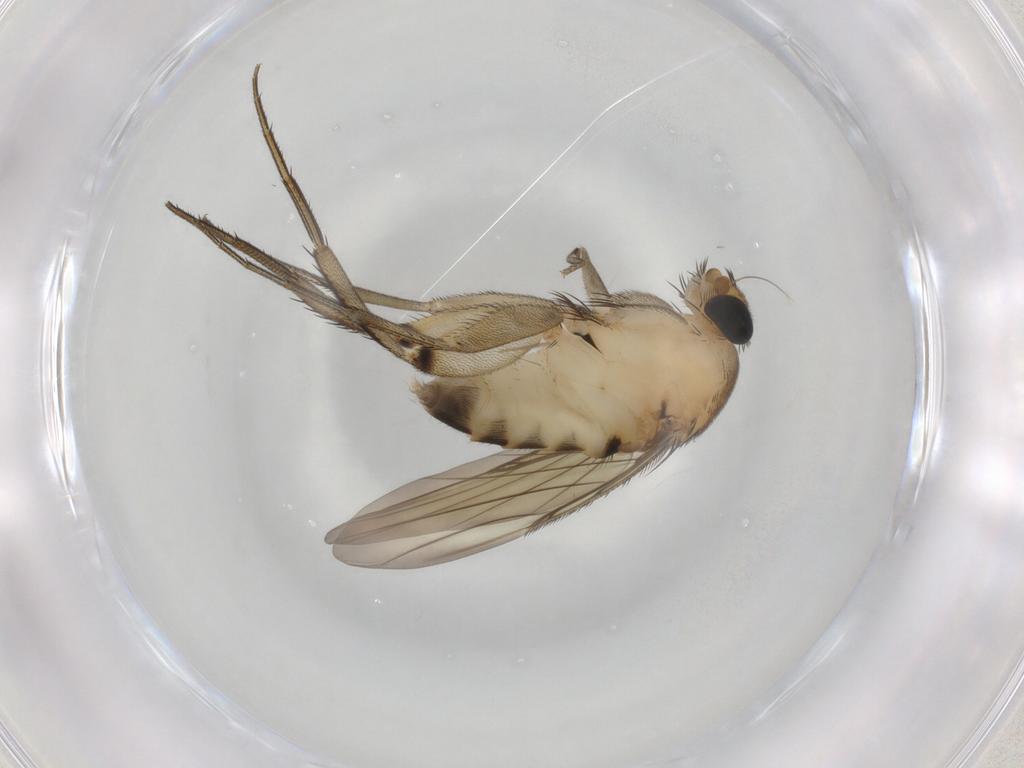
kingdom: Animalia
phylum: Arthropoda
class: Insecta
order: Diptera
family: Phoridae
